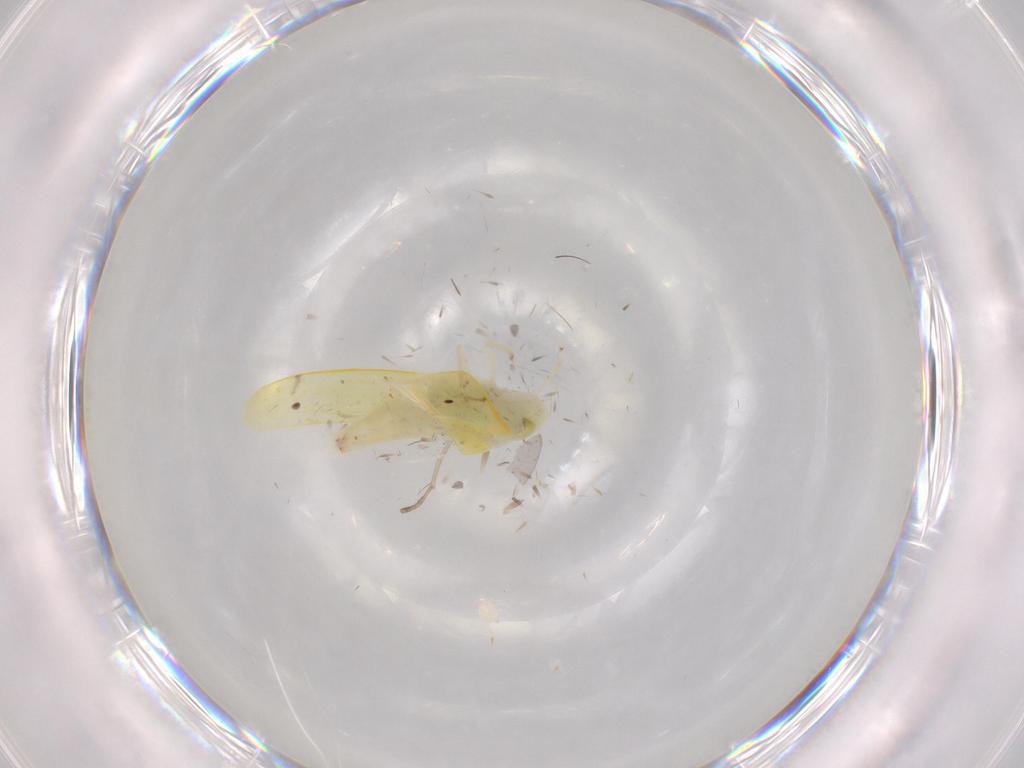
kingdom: Animalia
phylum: Arthropoda
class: Insecta
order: Hemiptera
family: Cicadellidae
